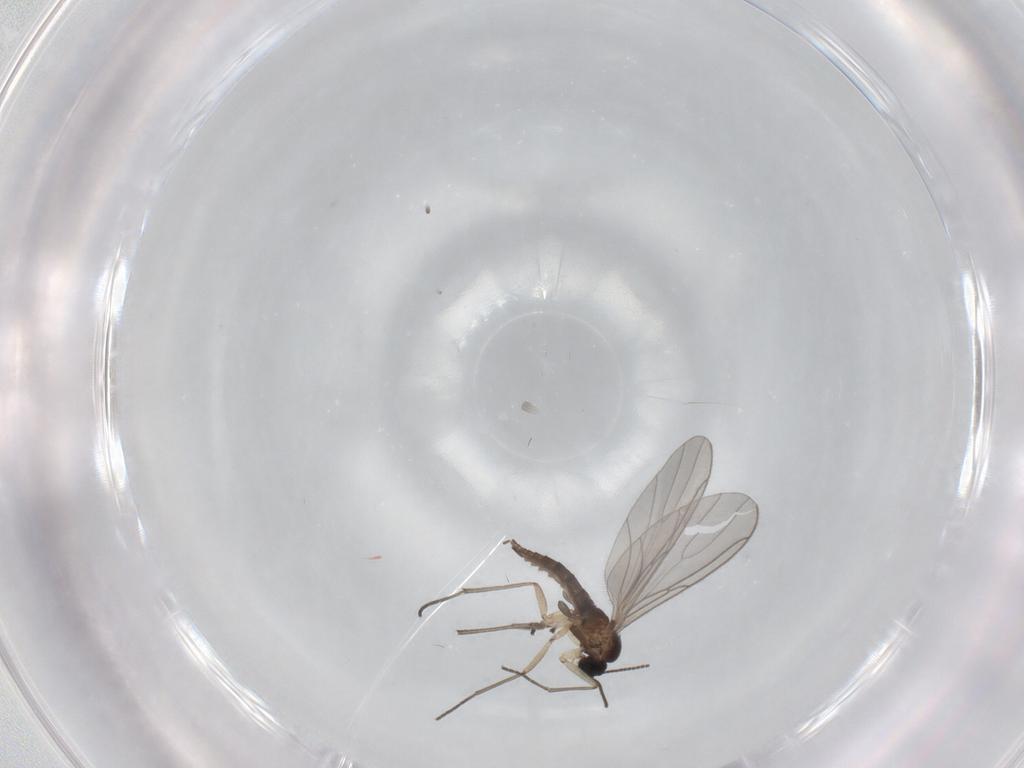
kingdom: Animalia
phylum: Arthropoda
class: Insecta
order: Diptera
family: Sciaridae
